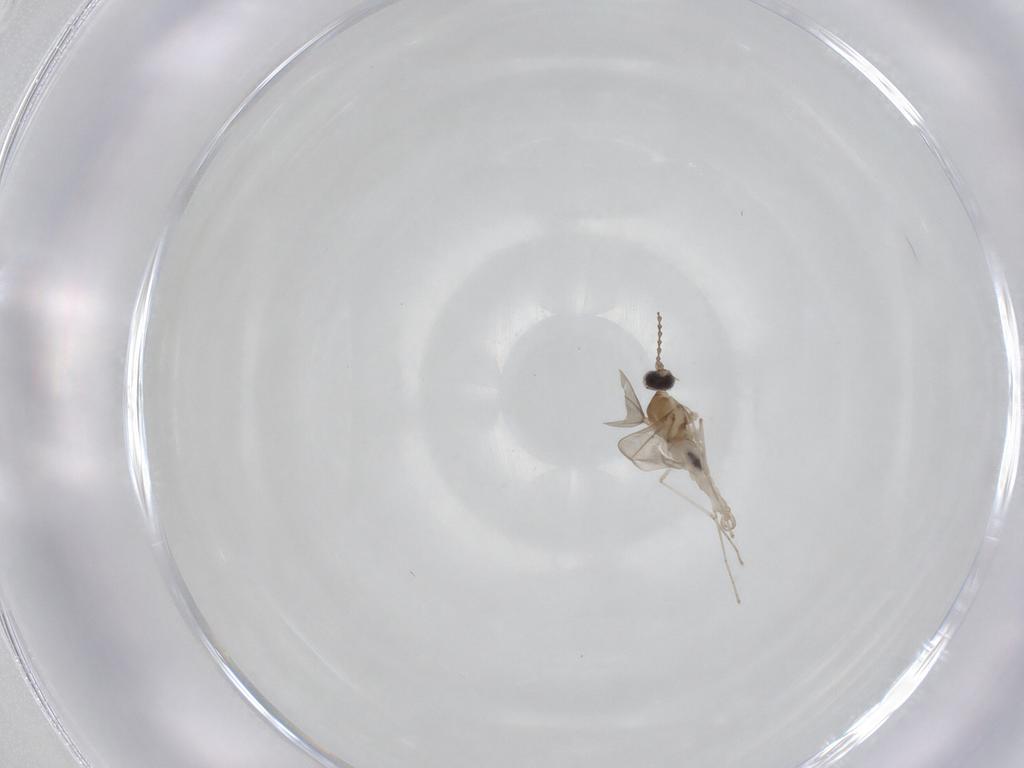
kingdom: Animalia
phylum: Arthropoda
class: Insecta
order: Diptera
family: Cecidomyiidae
